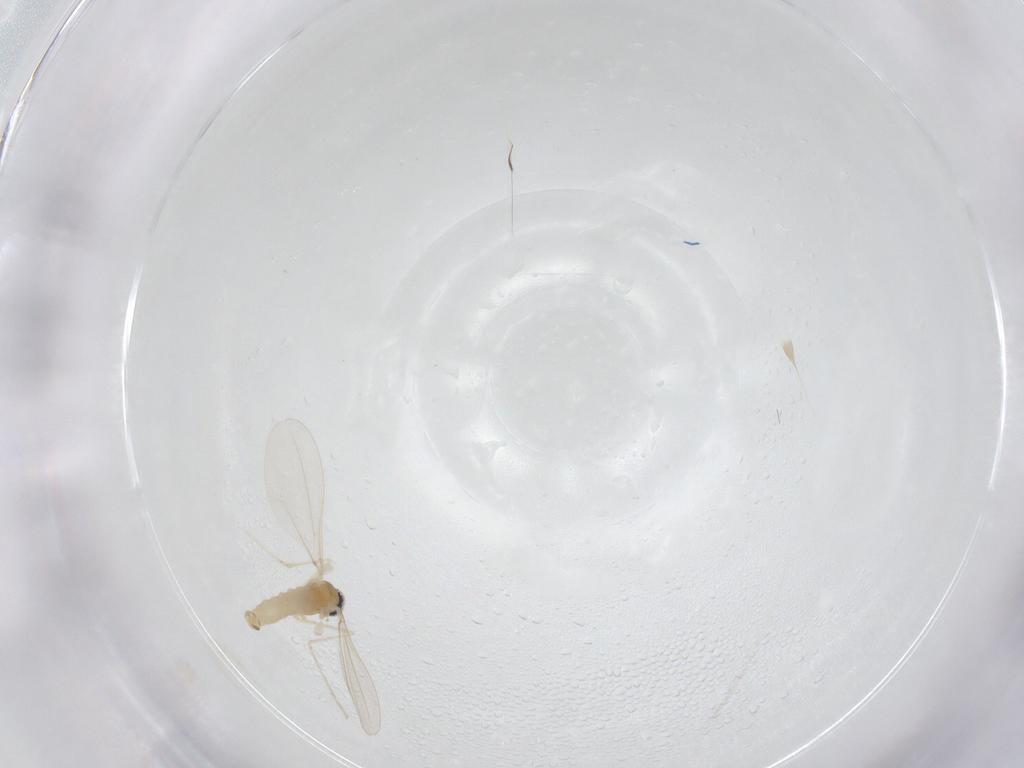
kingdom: Animalia
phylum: Arthropoda
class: Insecta
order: Diptera
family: Cecidomyiidae
